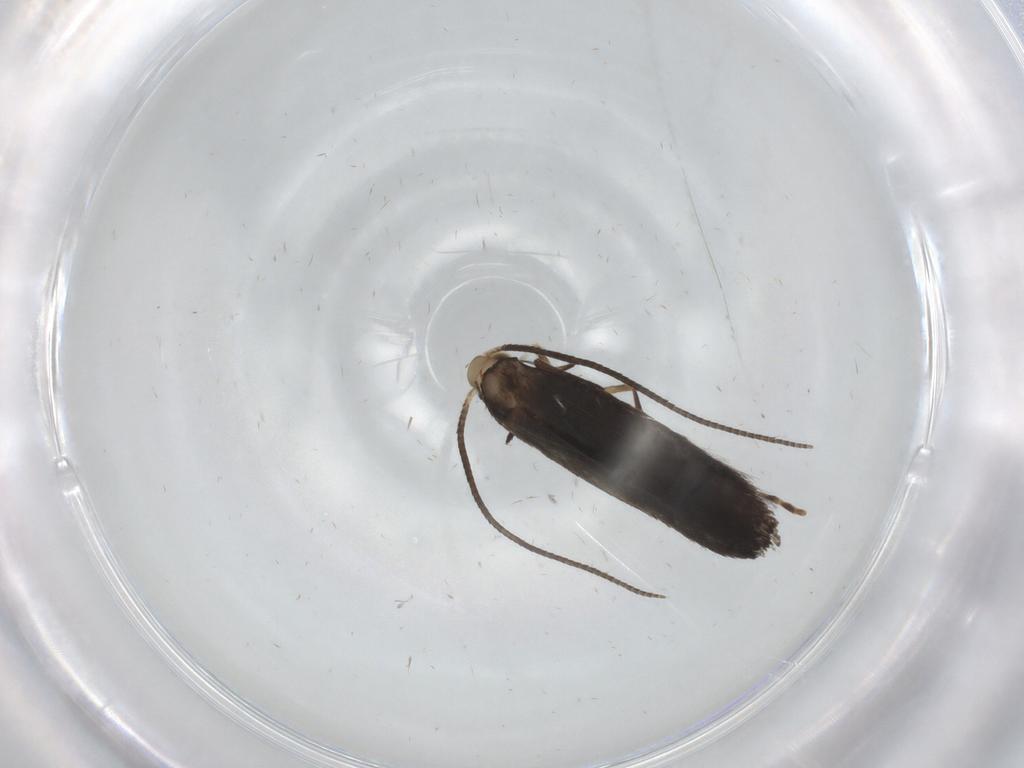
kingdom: Animalia
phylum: Arthropoda
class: Insecta
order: Lepidoptera
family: Gracillariidae
